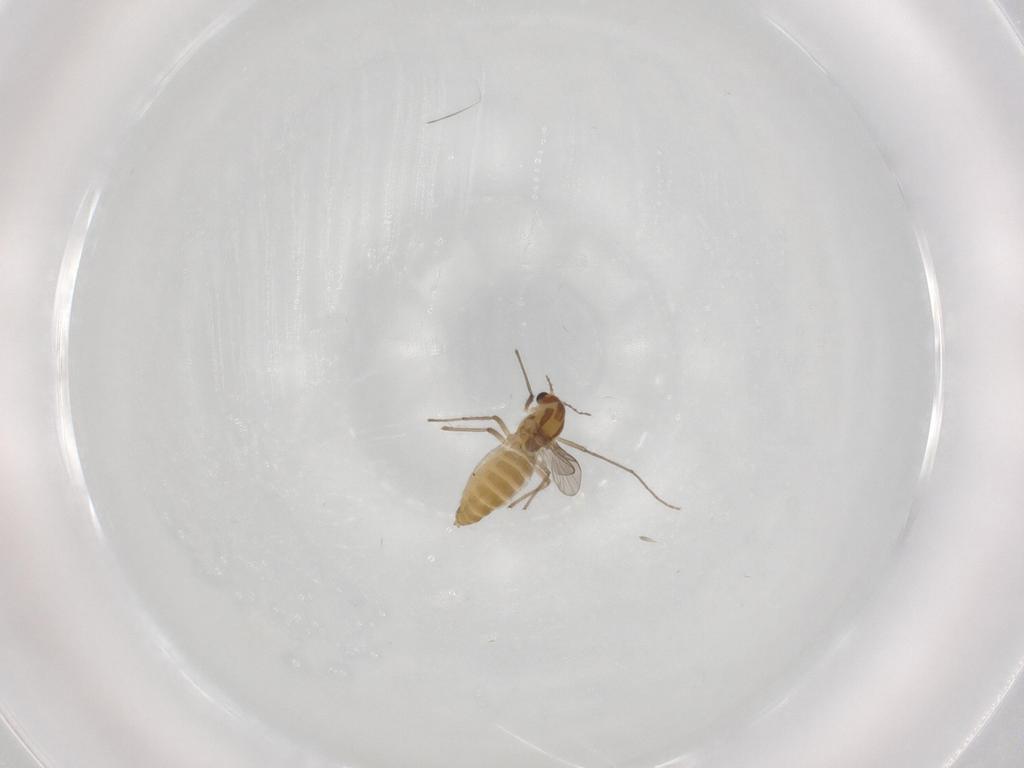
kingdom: Animalia
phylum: Arthropoda
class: Insecta
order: Diptera
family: Chironomidae
